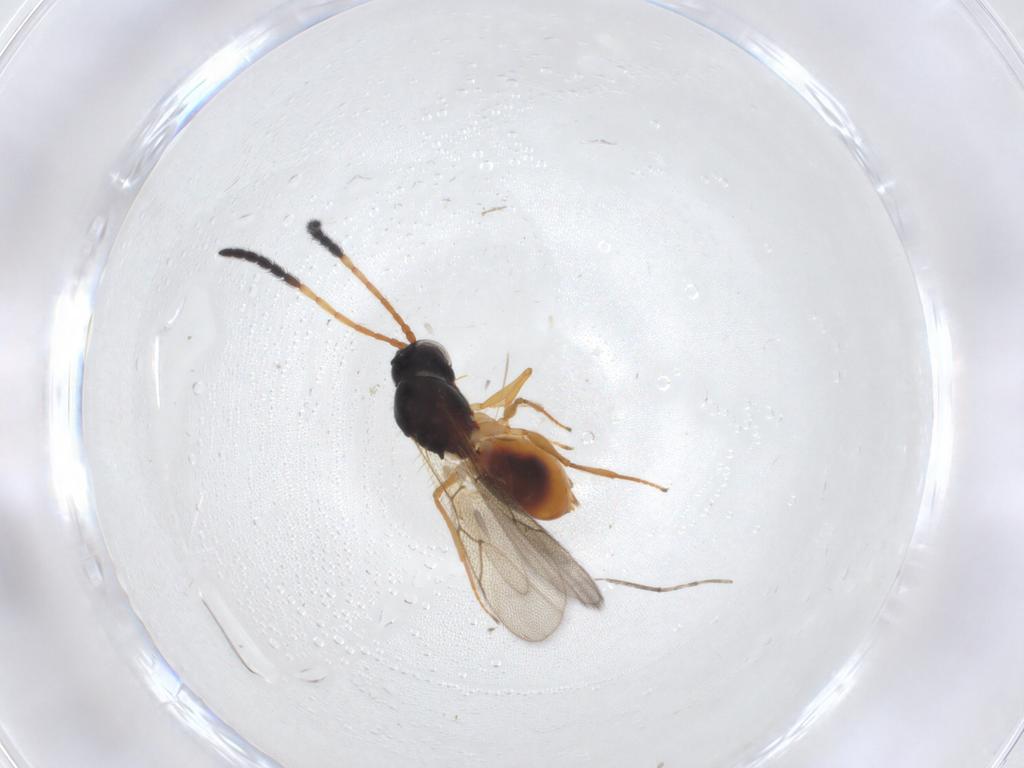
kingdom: Animalia
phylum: Arthropoda
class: Insecta
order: Hymenoptera
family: Figitidae
